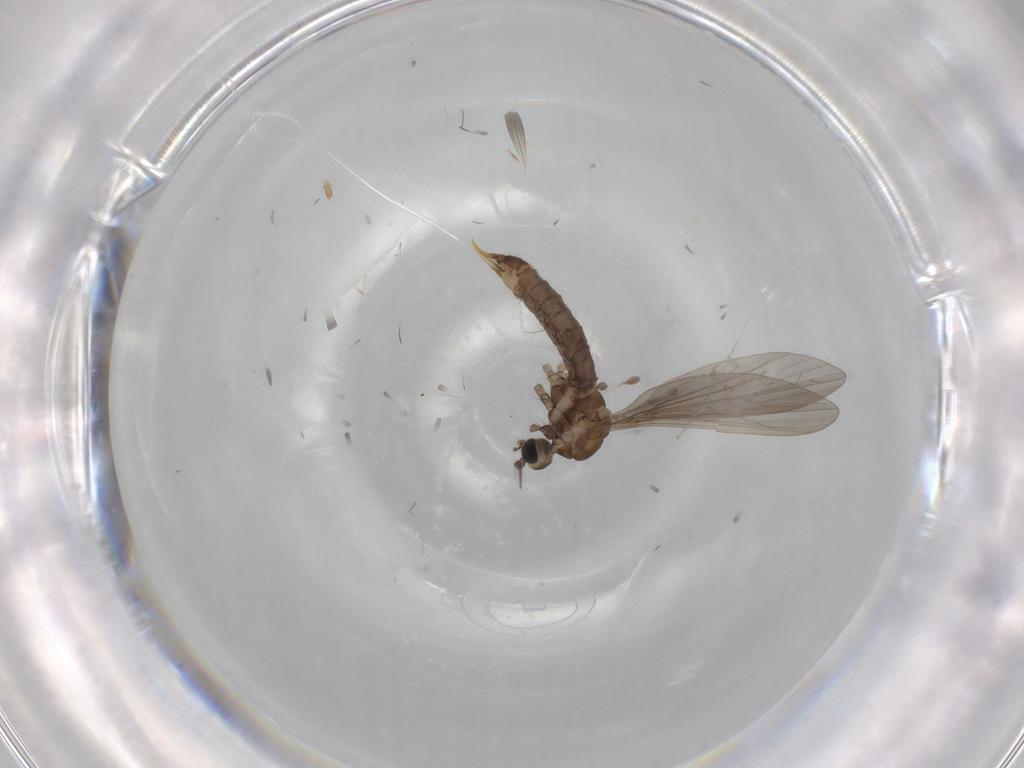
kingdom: Animalia
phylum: Arthropoda
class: Insecta
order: Diptera
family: Limoniidae
